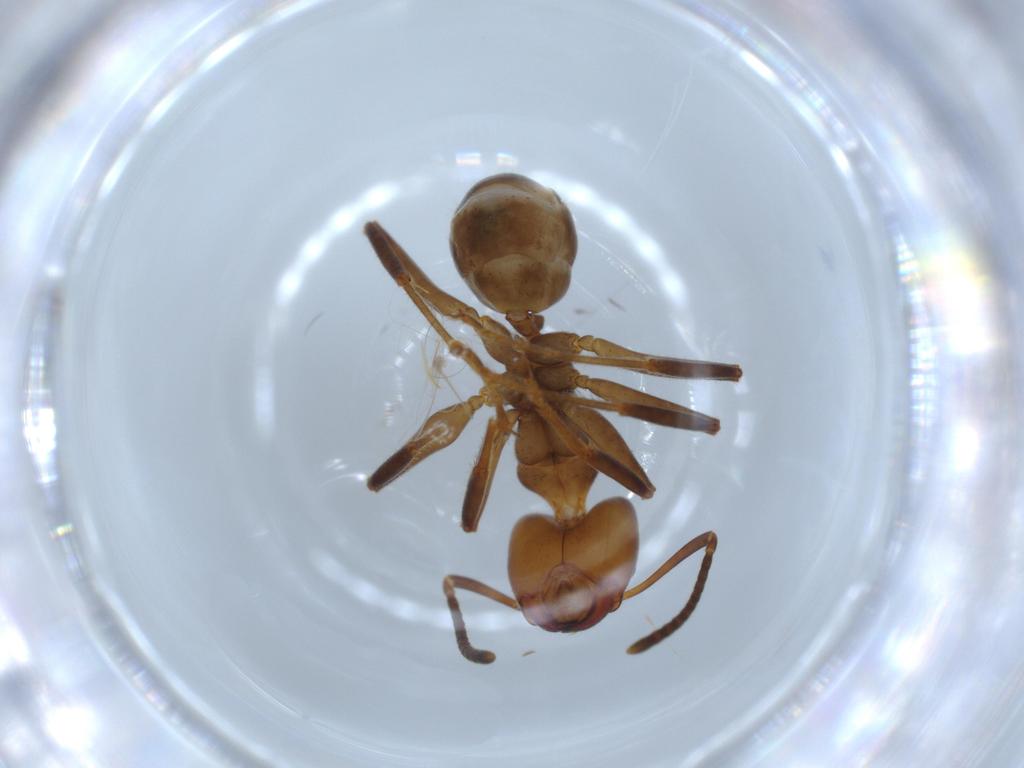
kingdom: Animalia
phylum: Arthropoda
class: Insecta
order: Hymenoptera
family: Formicidae
